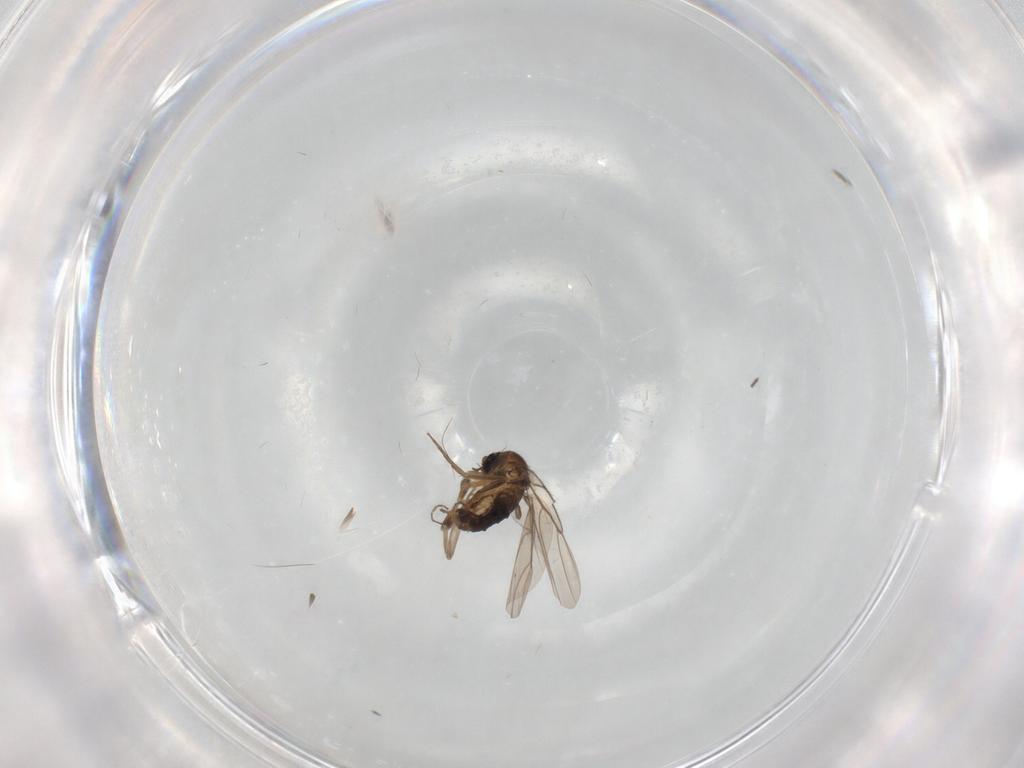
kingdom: Animalia
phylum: Arthropoda
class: Insecta
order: Diptera
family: Phoridae
